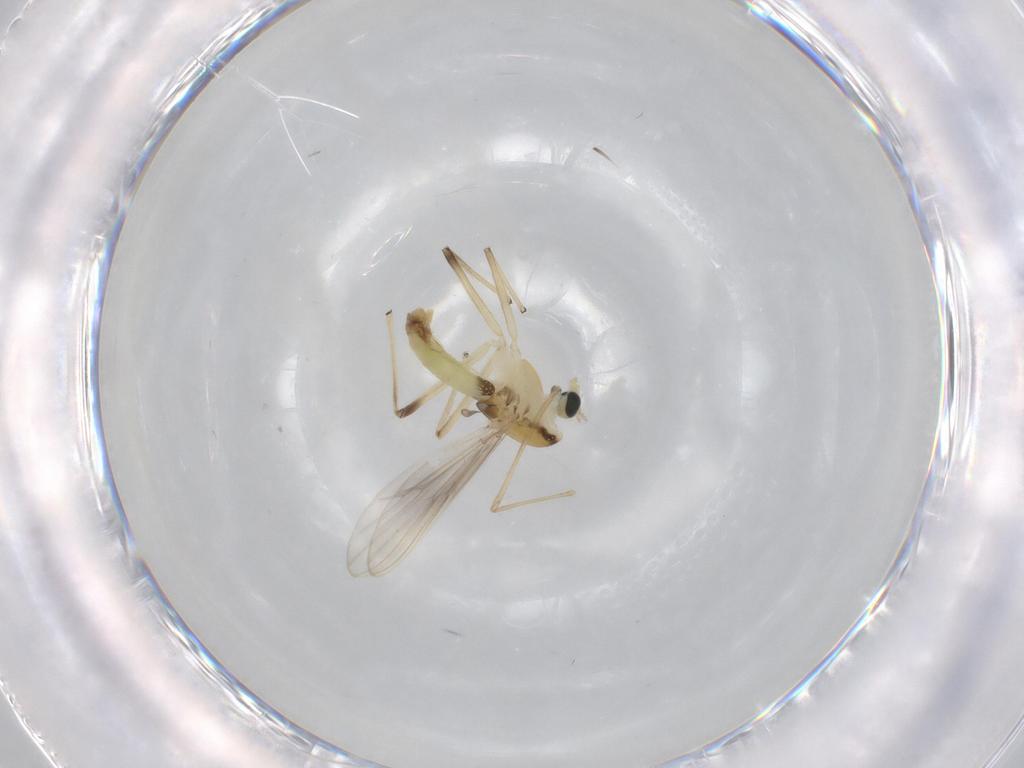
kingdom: Animalia
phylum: Arthropoda
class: Insecta
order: Diptera
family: Chironomidae
